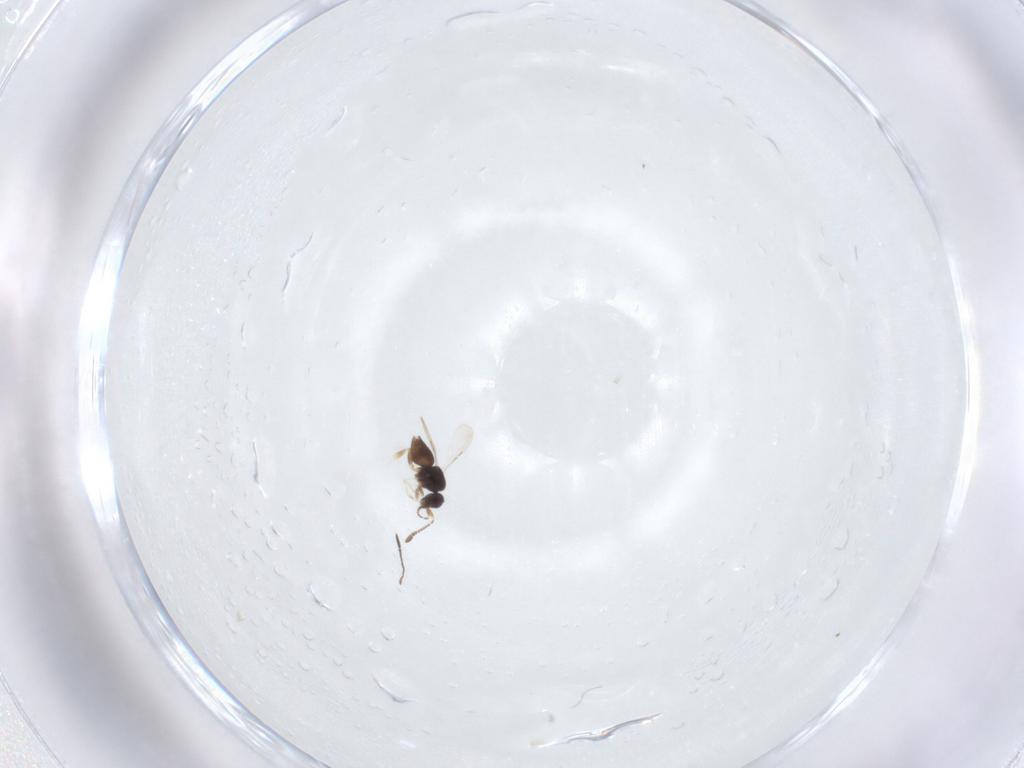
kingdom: Animalia
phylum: Arthropoda
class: Insecta
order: Hymenoptera
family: Mymaridae
